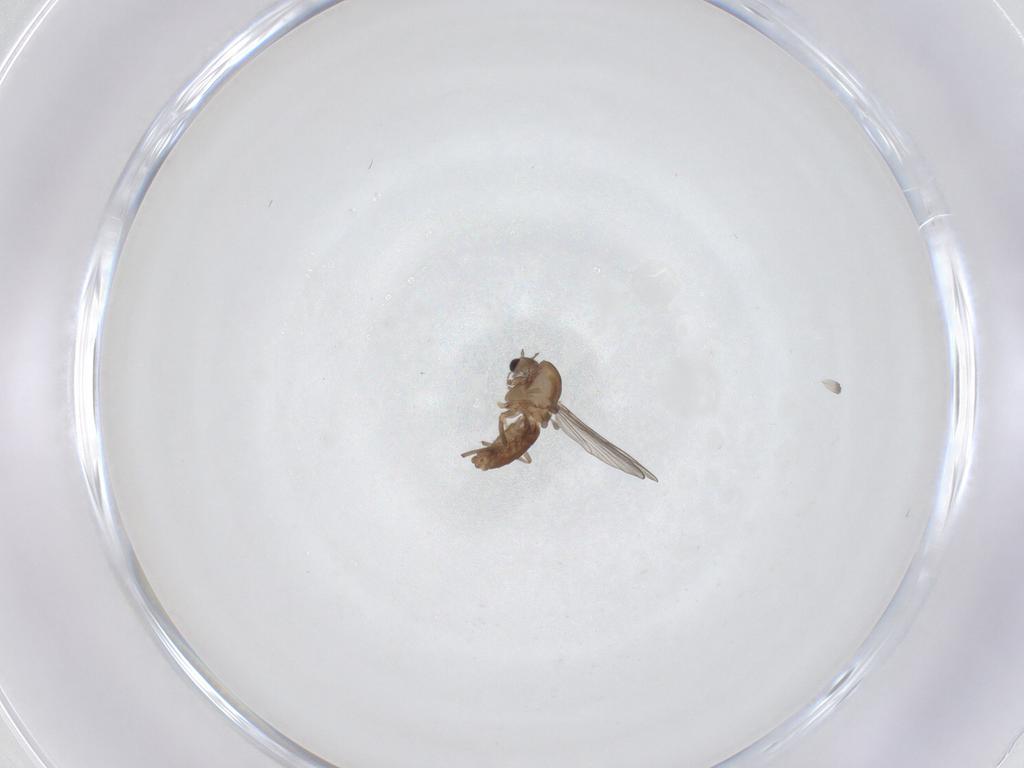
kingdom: Animalia
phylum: Arthropoda
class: Insecta
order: Diptera
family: Chironomidae
